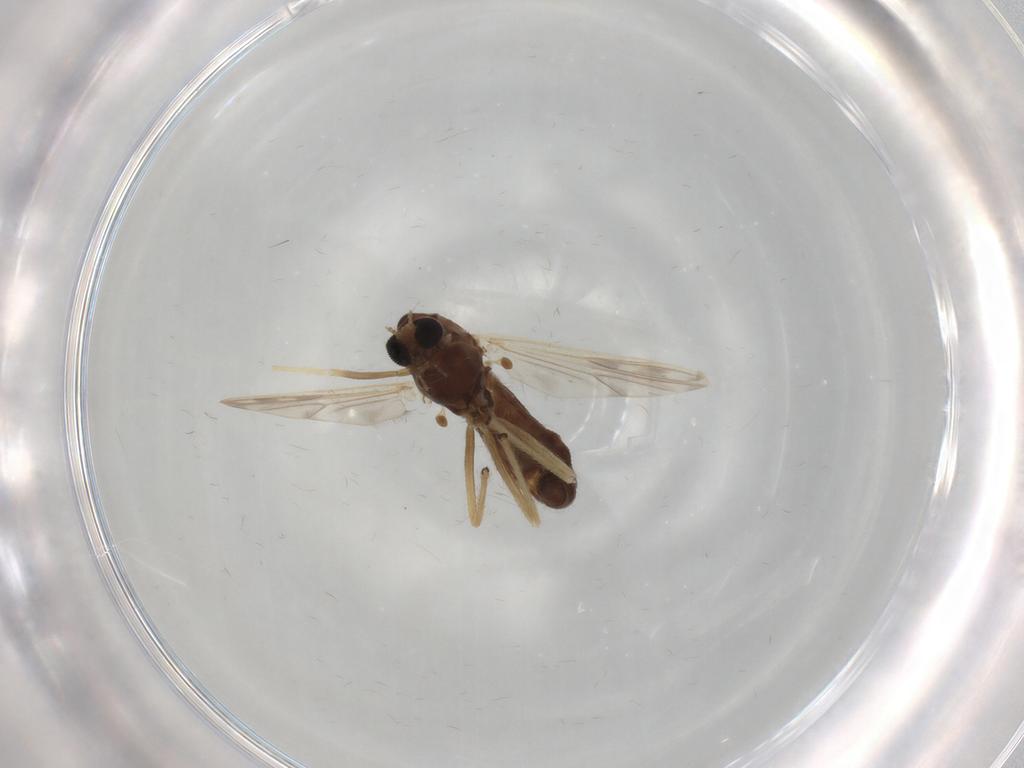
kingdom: Animalia
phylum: Arthropoda
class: Insecta
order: Diptera
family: Chironomidae
